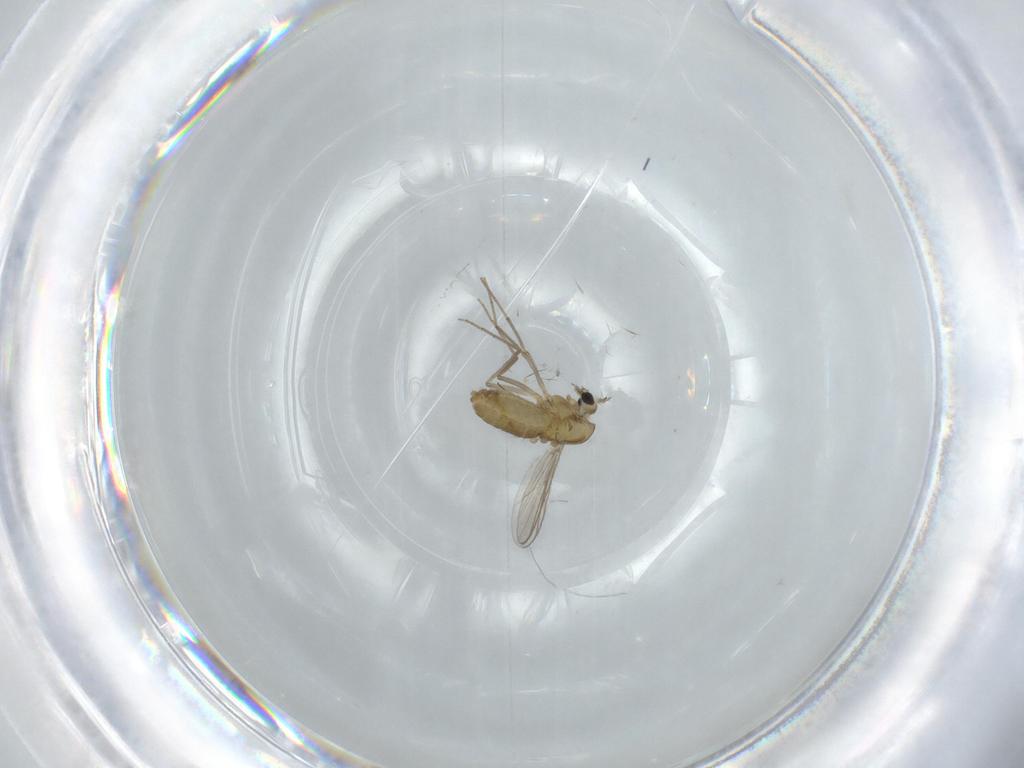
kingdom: Animalia
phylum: Arthropoda
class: Insecta
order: Diptera
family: Chironomidae
